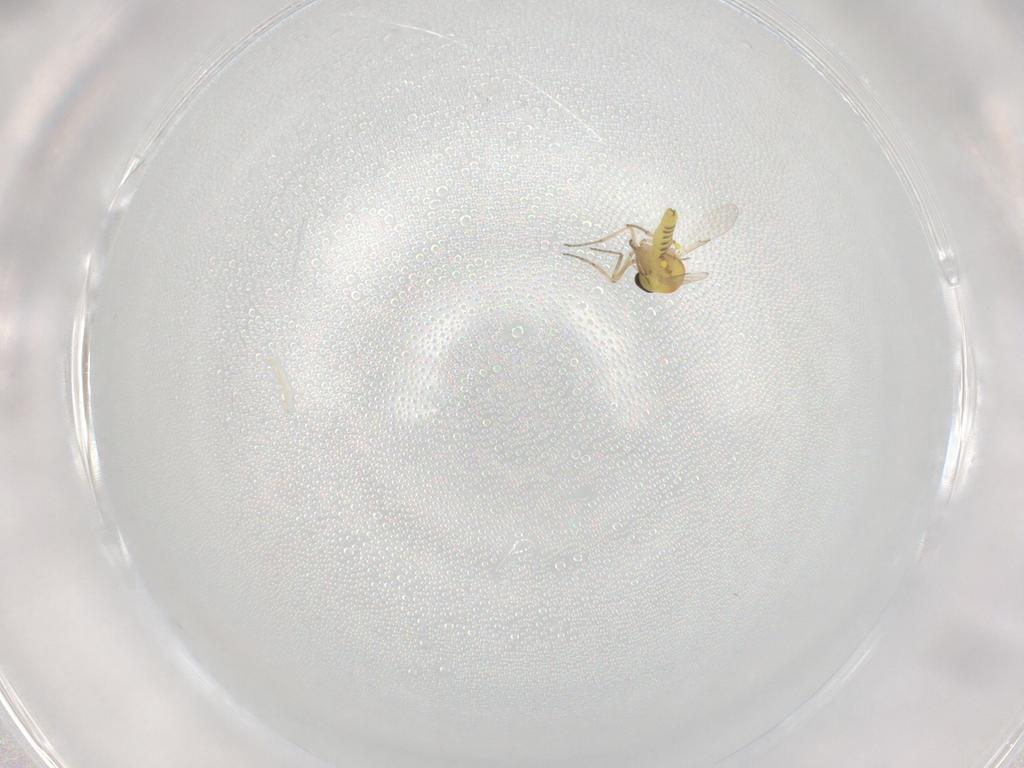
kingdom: Animalia
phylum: Arthropoda
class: Insecta
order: Diptera
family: Ceratopogonidae
